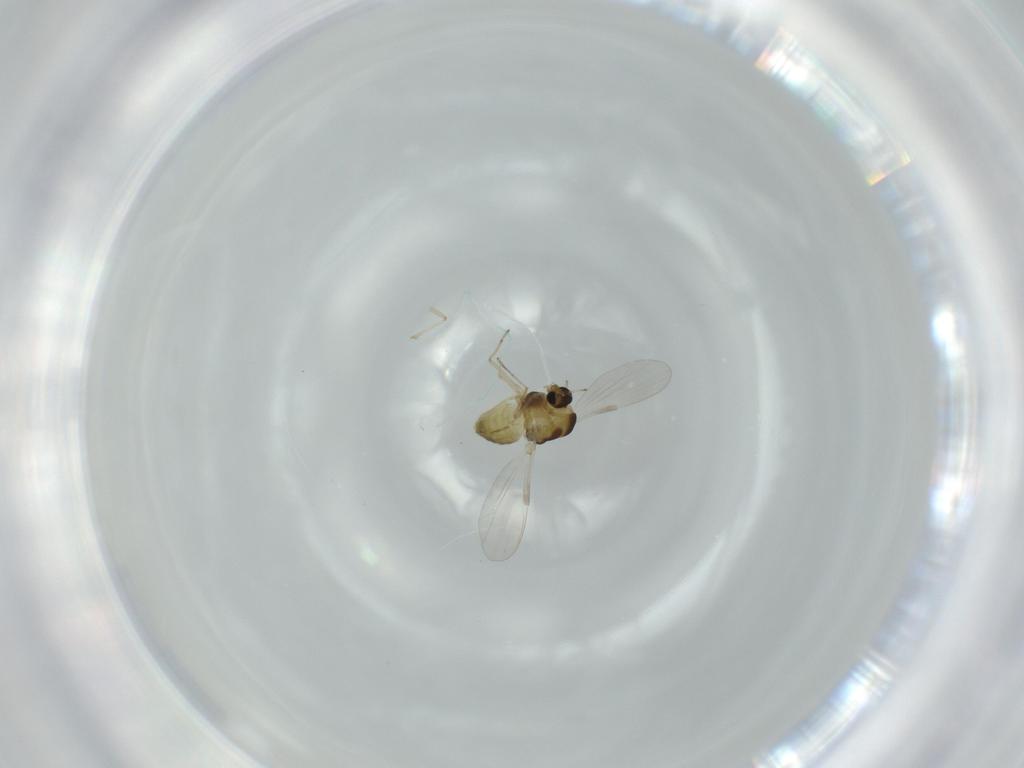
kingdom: Animalia
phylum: Arthropoda
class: Insecta
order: Diptera
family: Chironomidae
